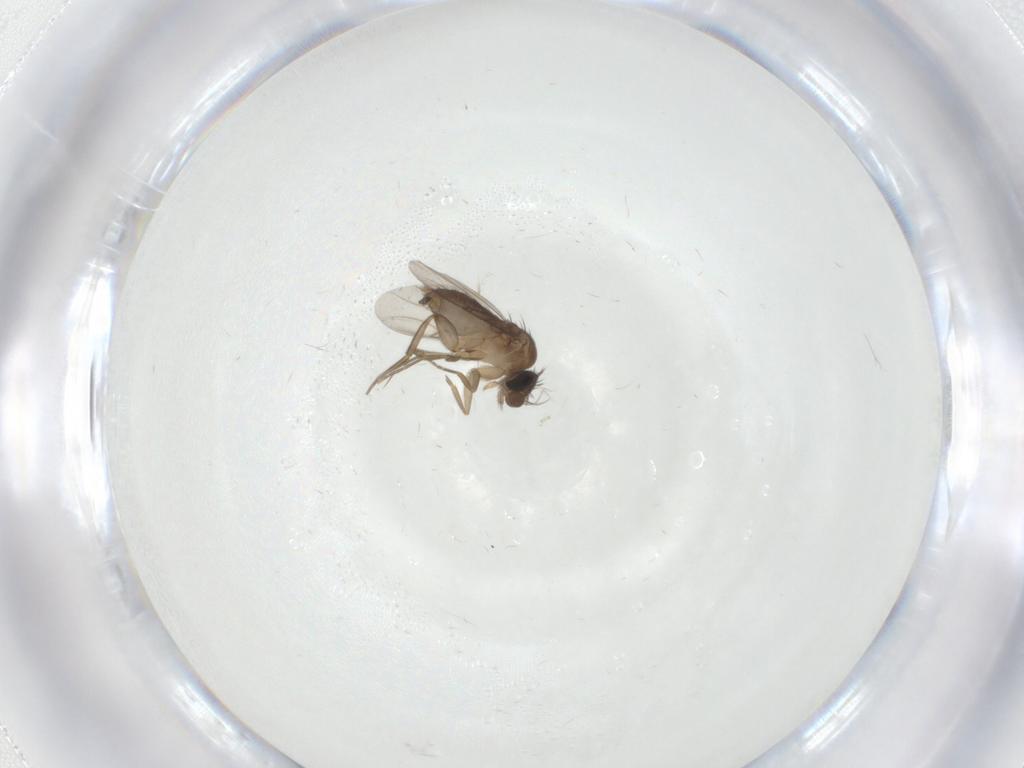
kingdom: Animalia
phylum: Arthropoda
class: Insecta
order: Diptera
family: Phoridae
